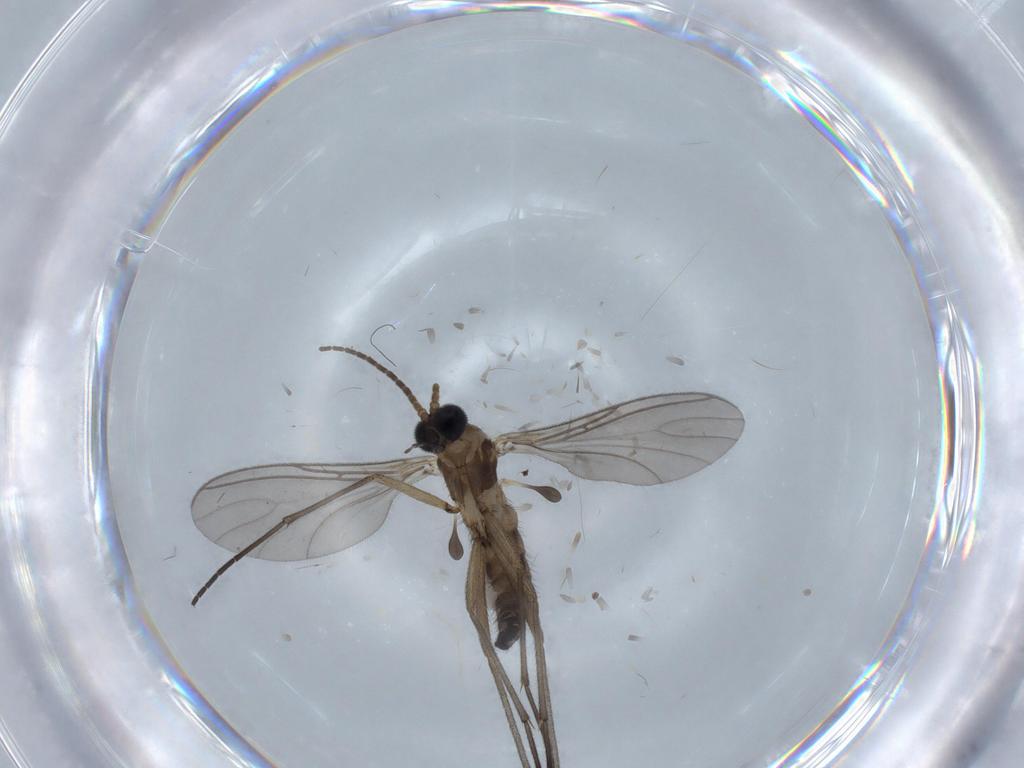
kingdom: Animalia
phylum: Arthropoda
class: Insecta
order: Diptera
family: Sciaridae
